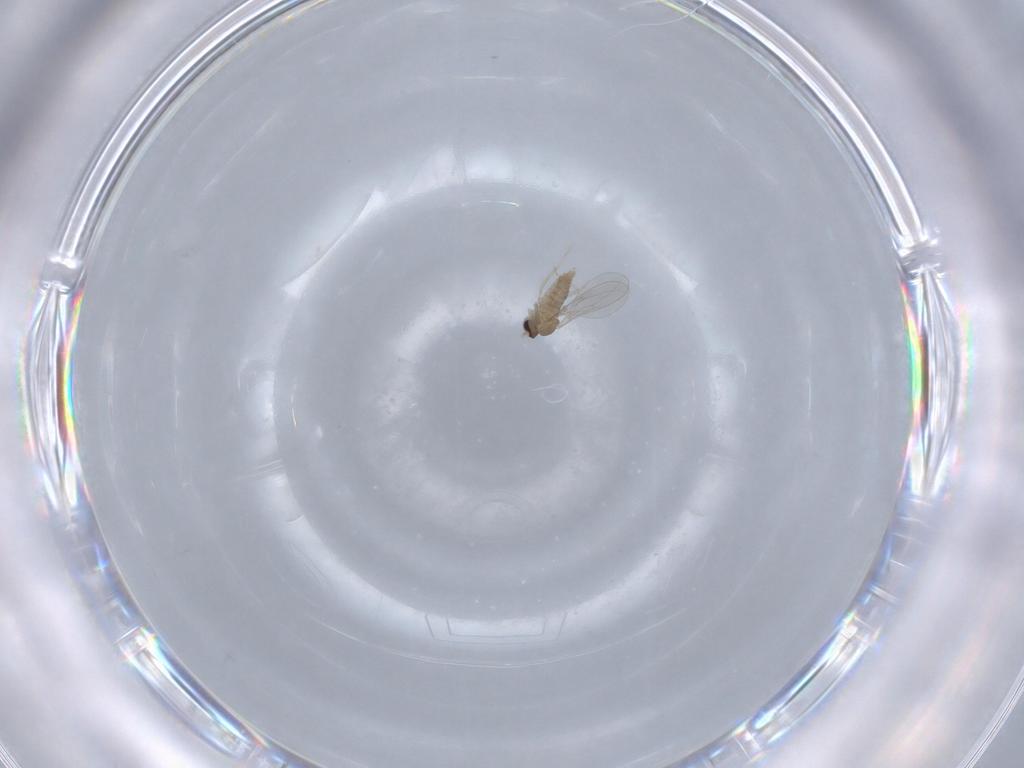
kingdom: Animalia
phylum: Arthropoda
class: Insecta
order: Diptera
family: Cecidomyiidae
